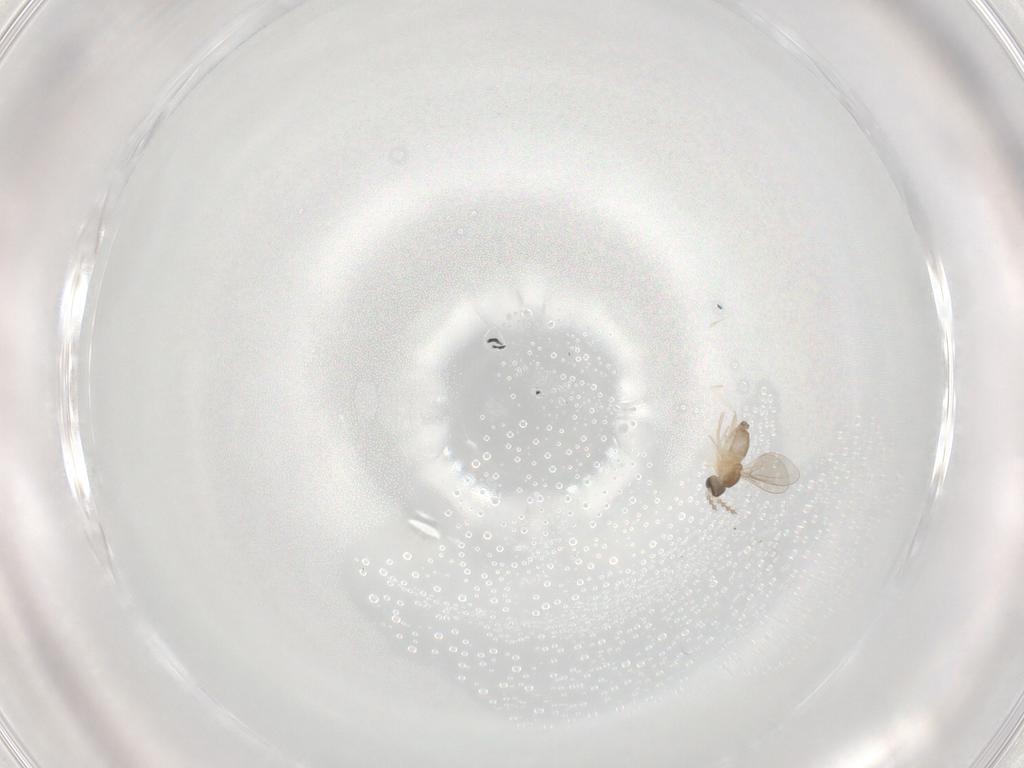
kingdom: Animalia
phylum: Arthropoda
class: Insecta
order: Diptera
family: Cecidomyiidae
